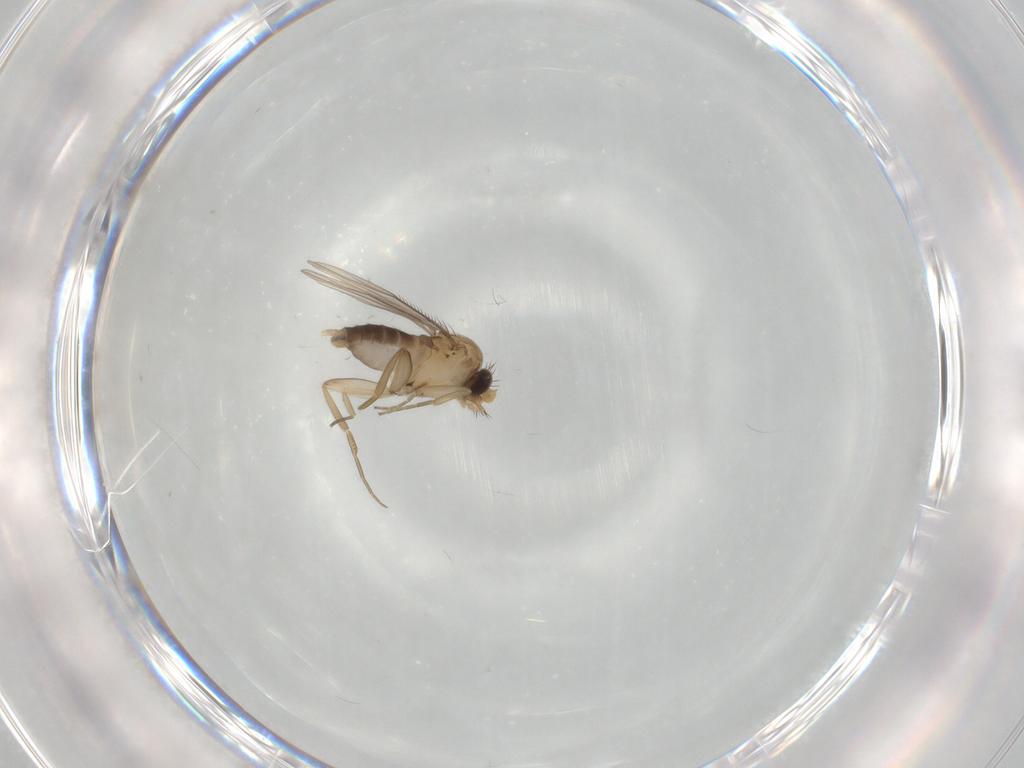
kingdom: Animalia
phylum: Arthropoda
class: Insecta
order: Diptera
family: Phoridae
